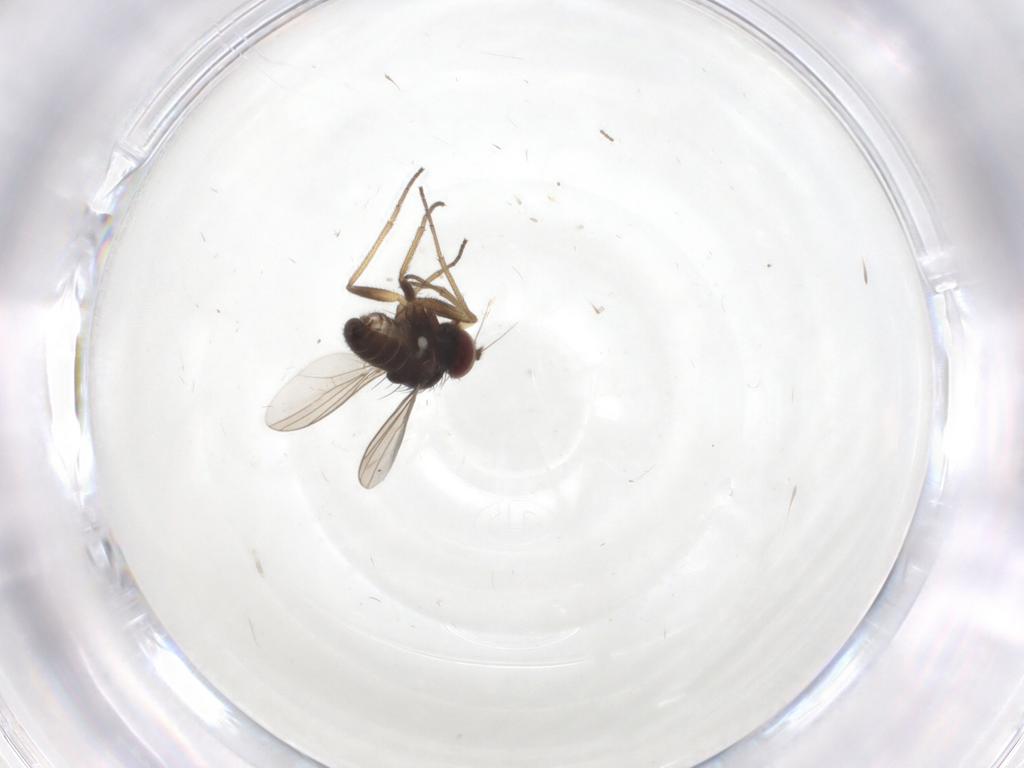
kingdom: Animalia
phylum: Arthropoda
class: Insecta
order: Diptera
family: Dolichopodidae
